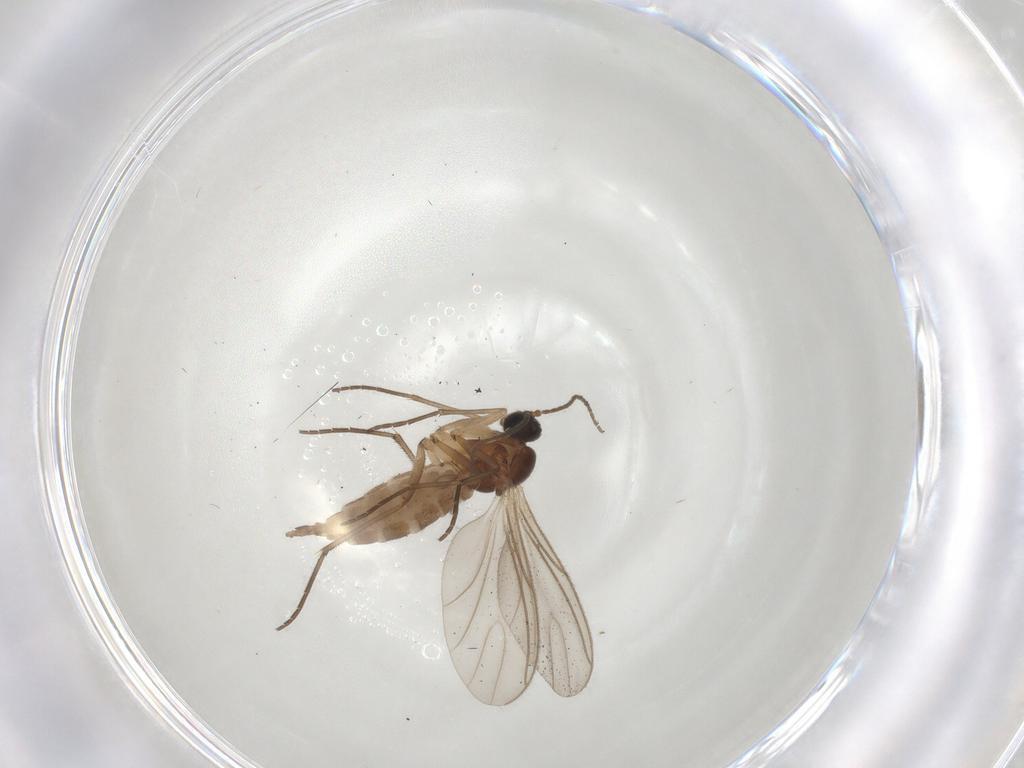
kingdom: Animalia
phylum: Arthropoda
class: Insecta
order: Diptera
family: Sciaridae
